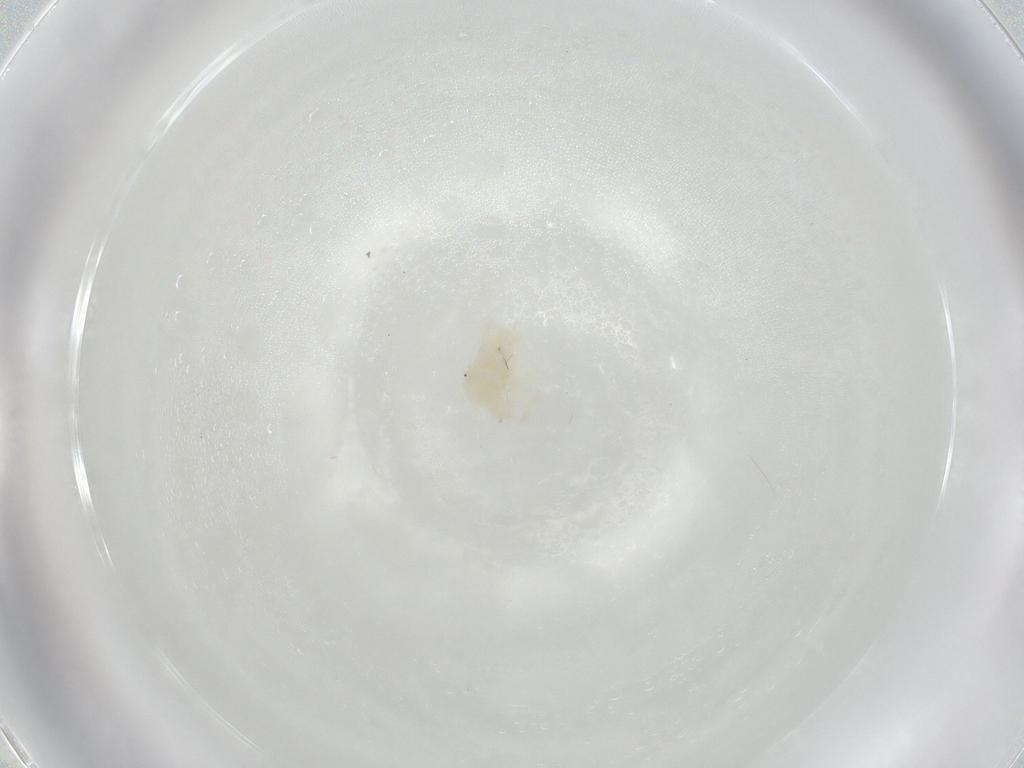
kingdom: Animalia
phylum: Arthropoda
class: Arachnida
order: Trombidiformes
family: Anystidae
